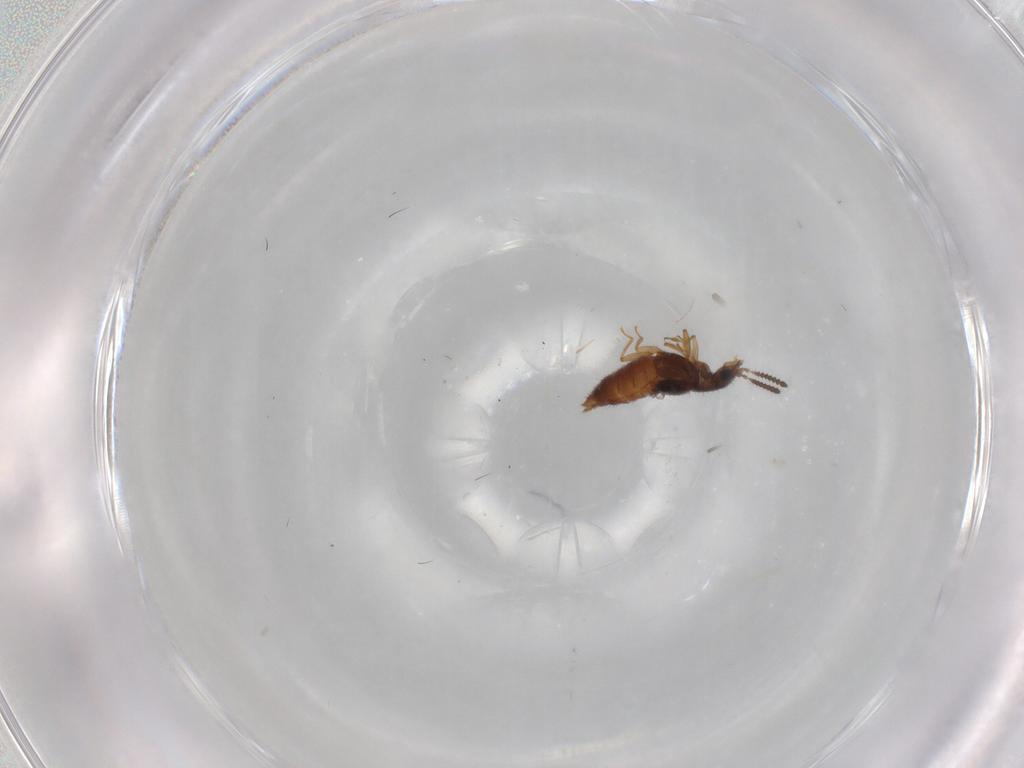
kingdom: Animalia
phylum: Arthropoda
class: Insecta
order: Coleoptera
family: Staphylinidae
